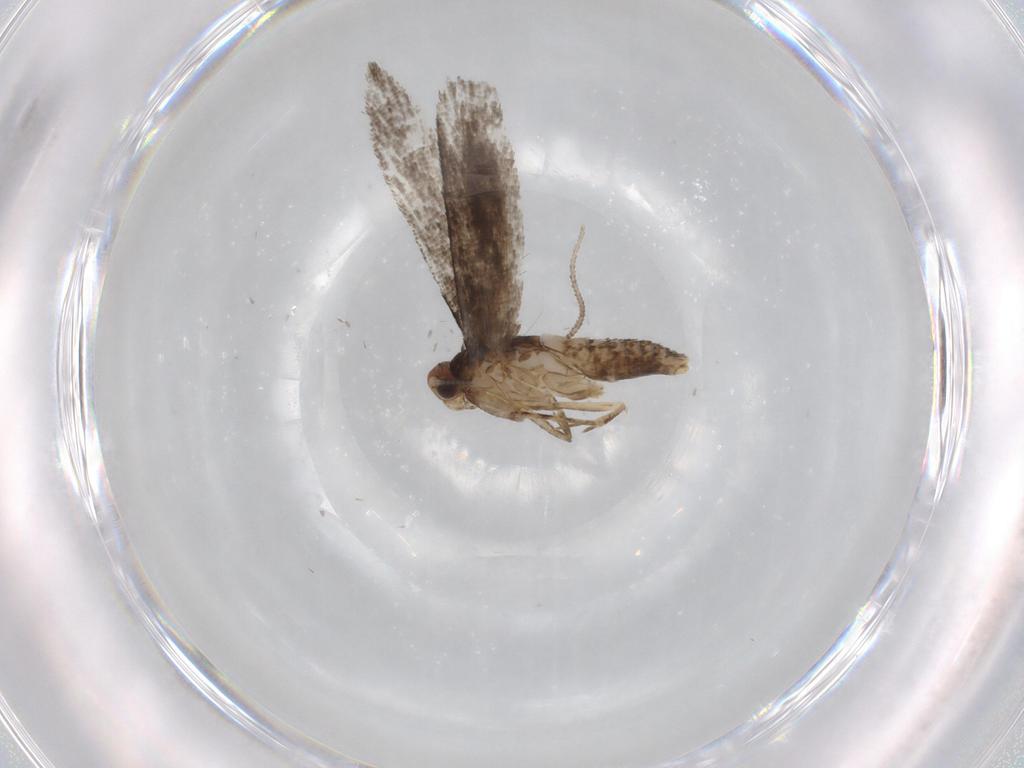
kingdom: Animalia
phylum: Arthropoda
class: Insecta
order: Lepidoptera
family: Tineidae
